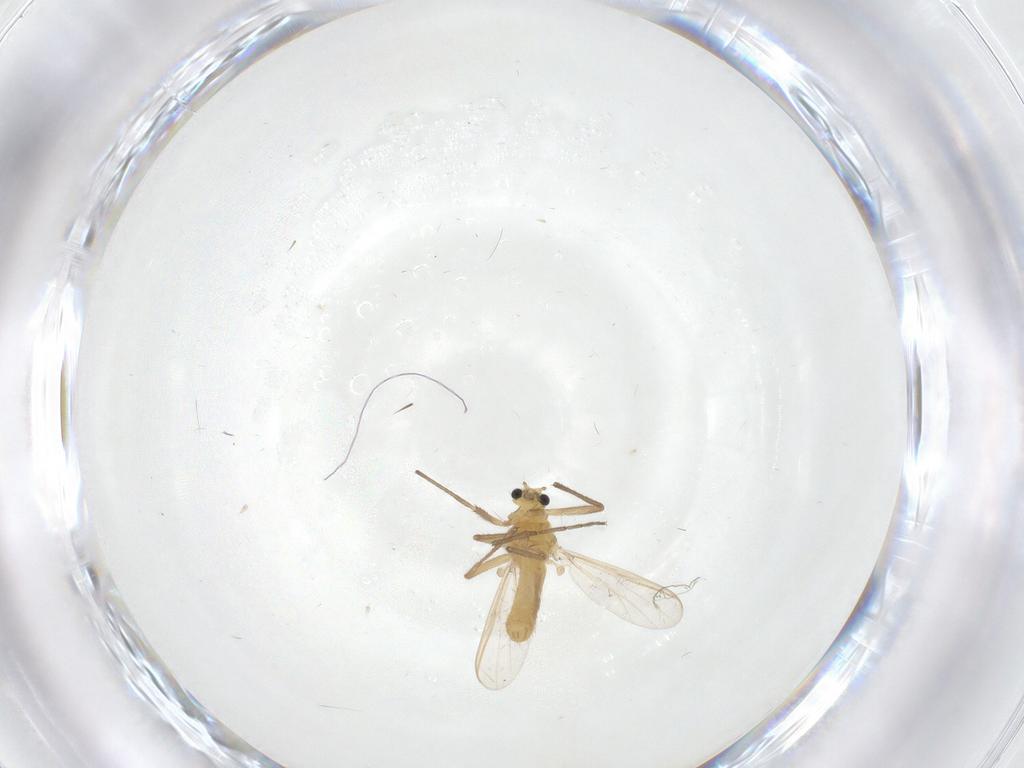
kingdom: Animalia
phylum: Arthropoda
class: Insecta
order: Diptera
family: Chironomidae
